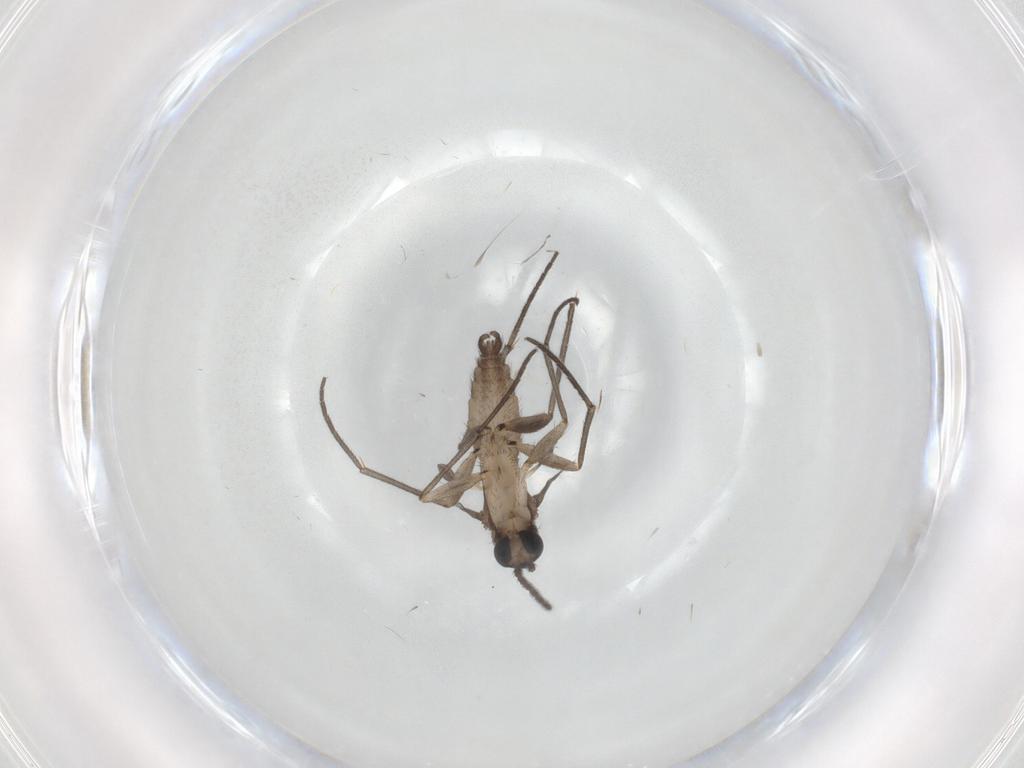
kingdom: Animalia
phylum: Arthropoda
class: Insecta
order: Diptera
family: Sciaridae
